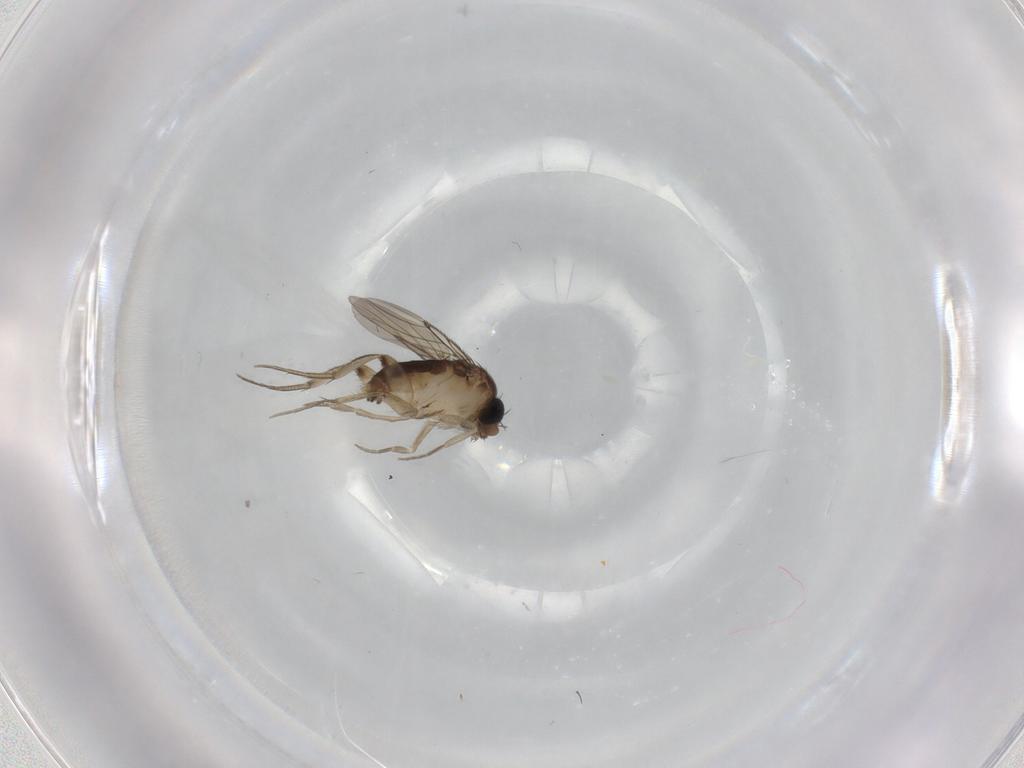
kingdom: Animalia
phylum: Arthropoda
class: Insecta
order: Diptera
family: Phoridae
